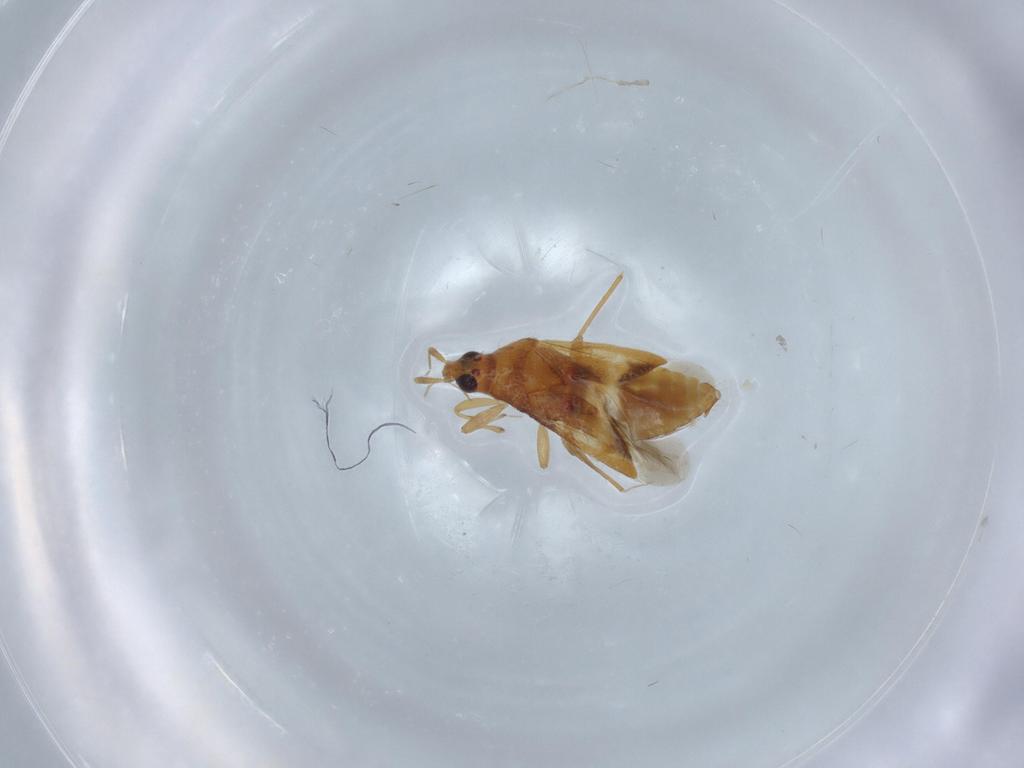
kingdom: Animalia
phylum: Arthropoda
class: Insecta
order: Hemiptera
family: Anthocoridae
